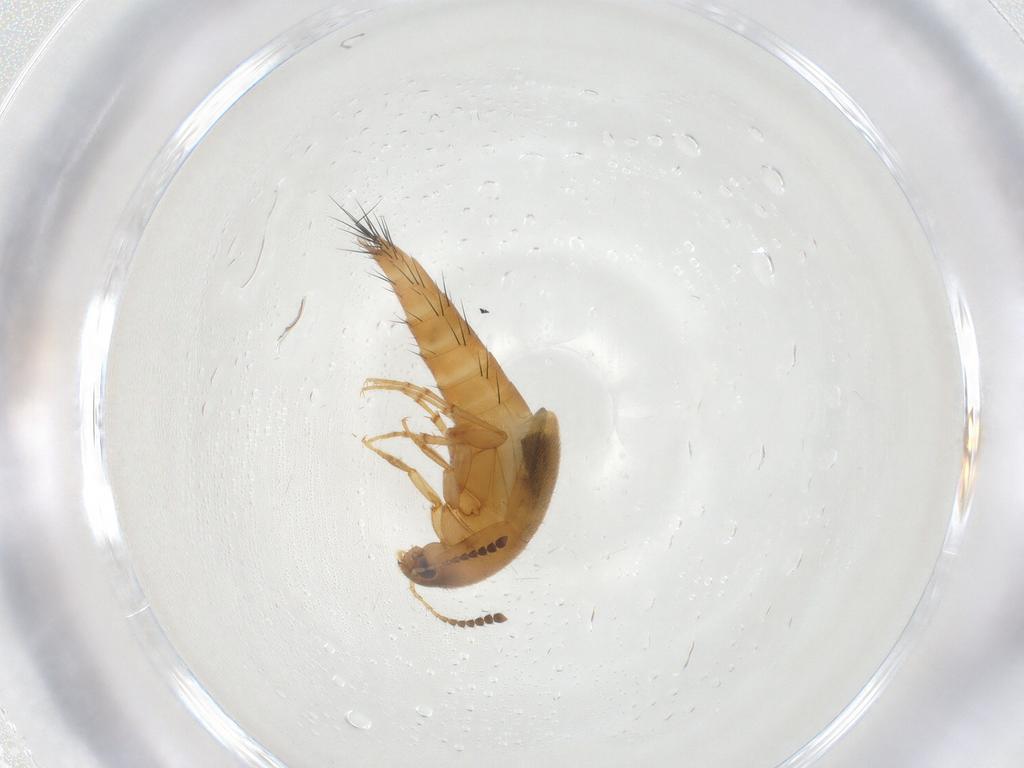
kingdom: Animalia
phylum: Arthropoda
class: Insecta
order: Coleoptera
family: Staphylinidae
